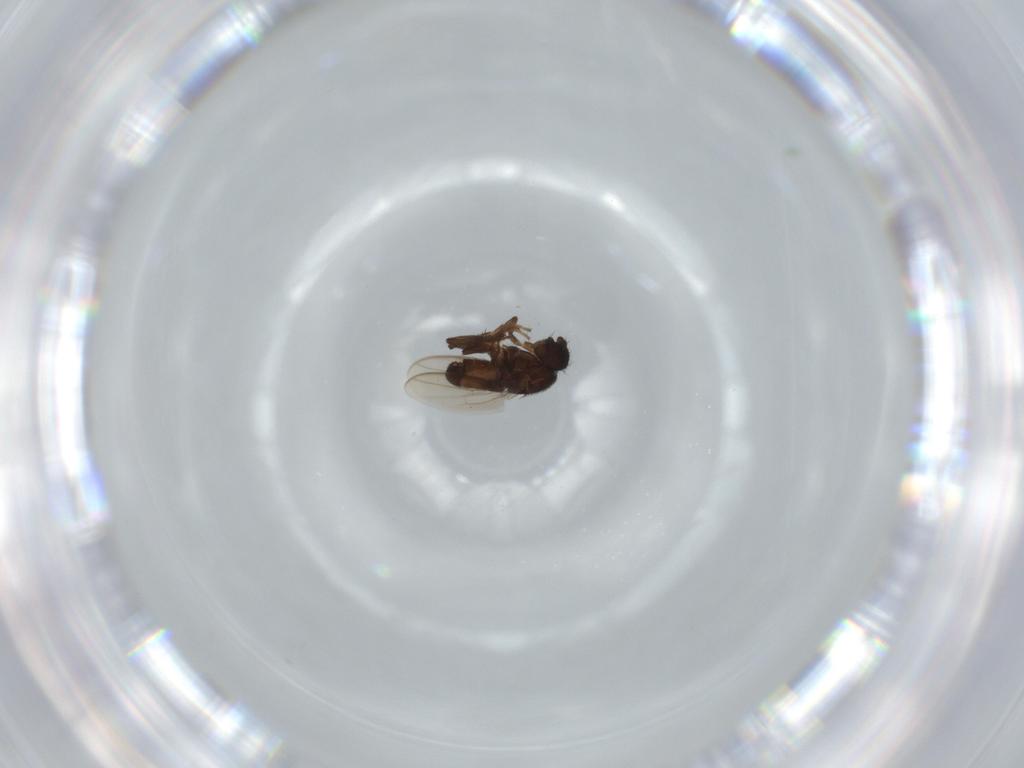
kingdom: Animalia
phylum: Arthropoda
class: Insecta
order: Diptera
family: Sphaeroceridae
